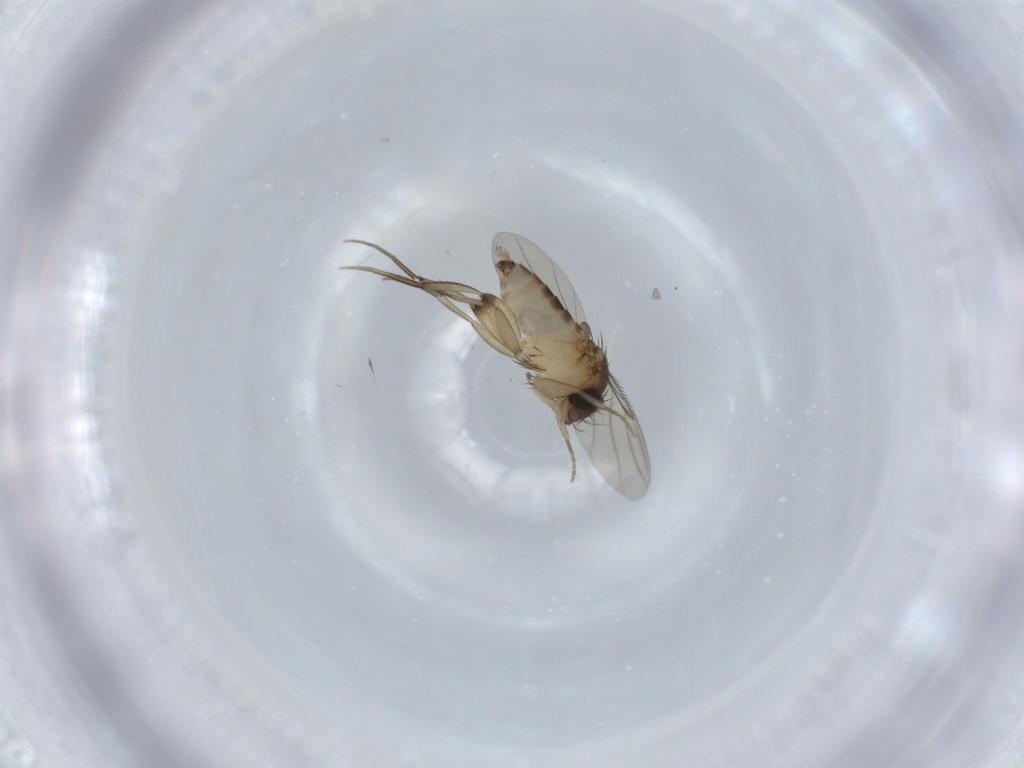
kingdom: Animalia
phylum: Arthropoda
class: Insecta
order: Diptera
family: Phoridae
